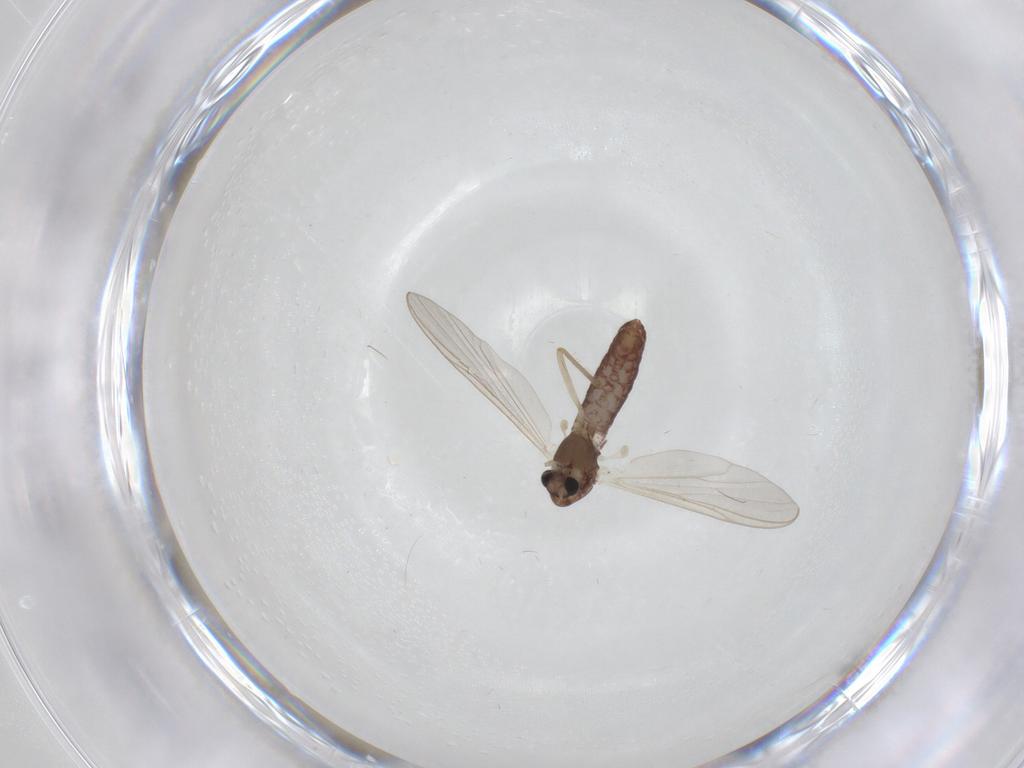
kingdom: Animalia
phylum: Arthropoda
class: Insecta
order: Diptera
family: Chironomidae
